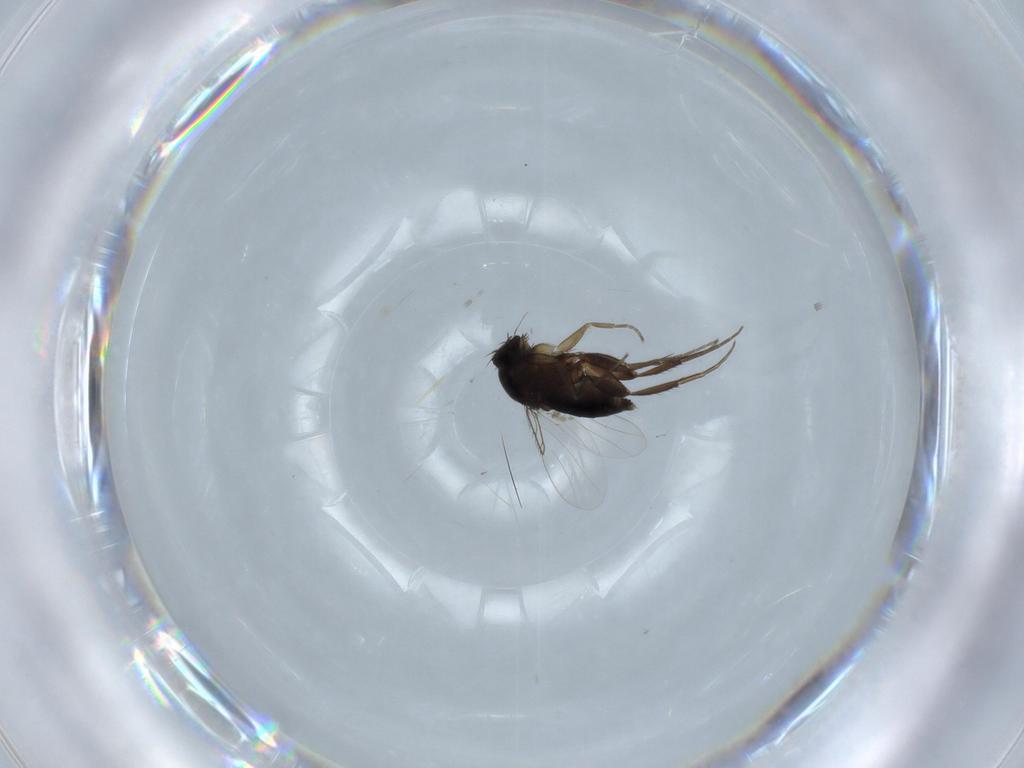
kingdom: Animalia
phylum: Arthropoda
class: Insecta
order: Diptera
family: Phoridae
